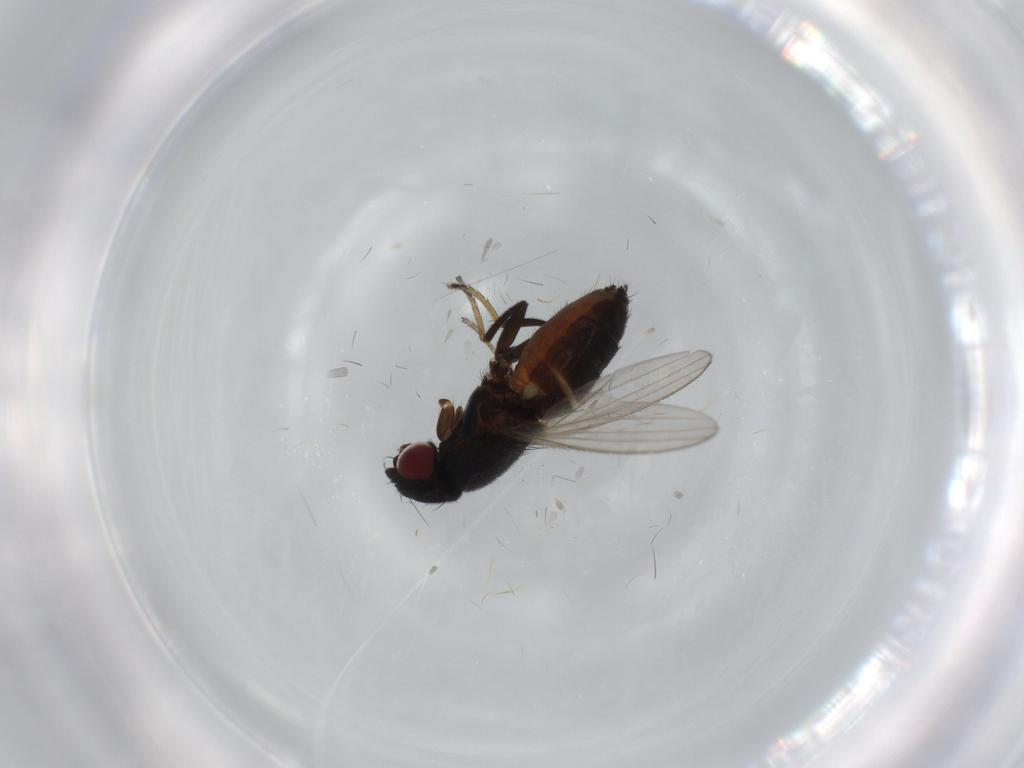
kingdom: Animalia
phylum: Arthropoda
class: Insecta
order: Diptera
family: Milichiidae
